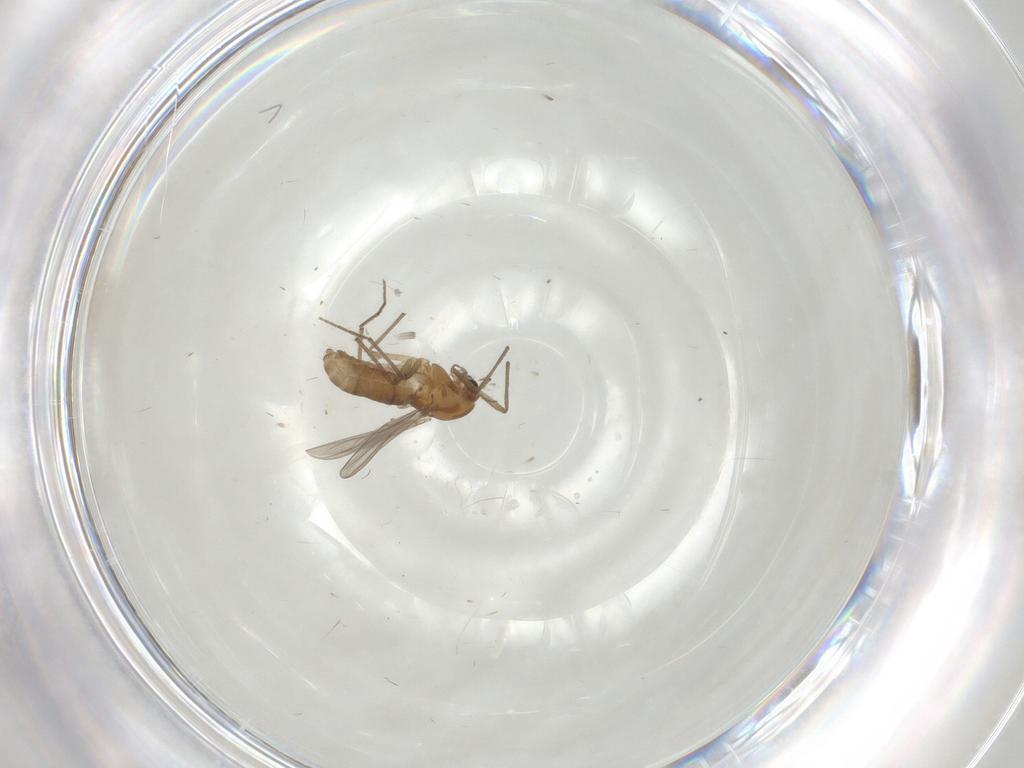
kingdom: Animalia
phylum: Arthropoda
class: Insecta
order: Diptera
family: Chironomidae
